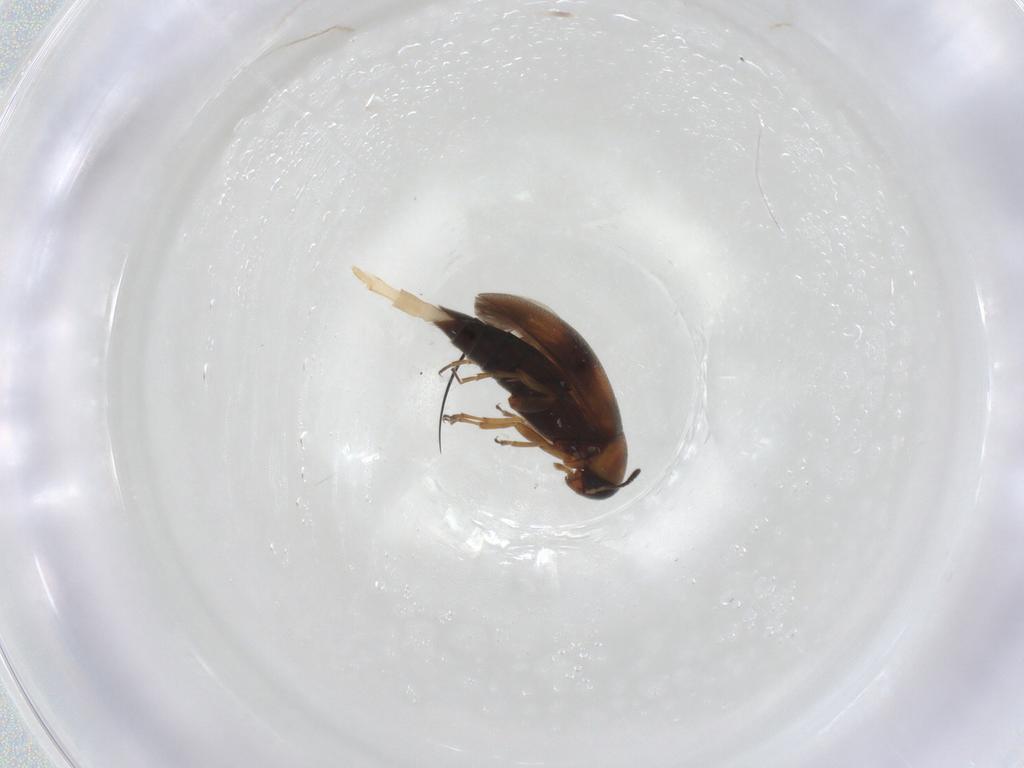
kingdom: Animalia
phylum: Arthropoda
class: Insecta
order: Coleoptera
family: Scraptiidae
